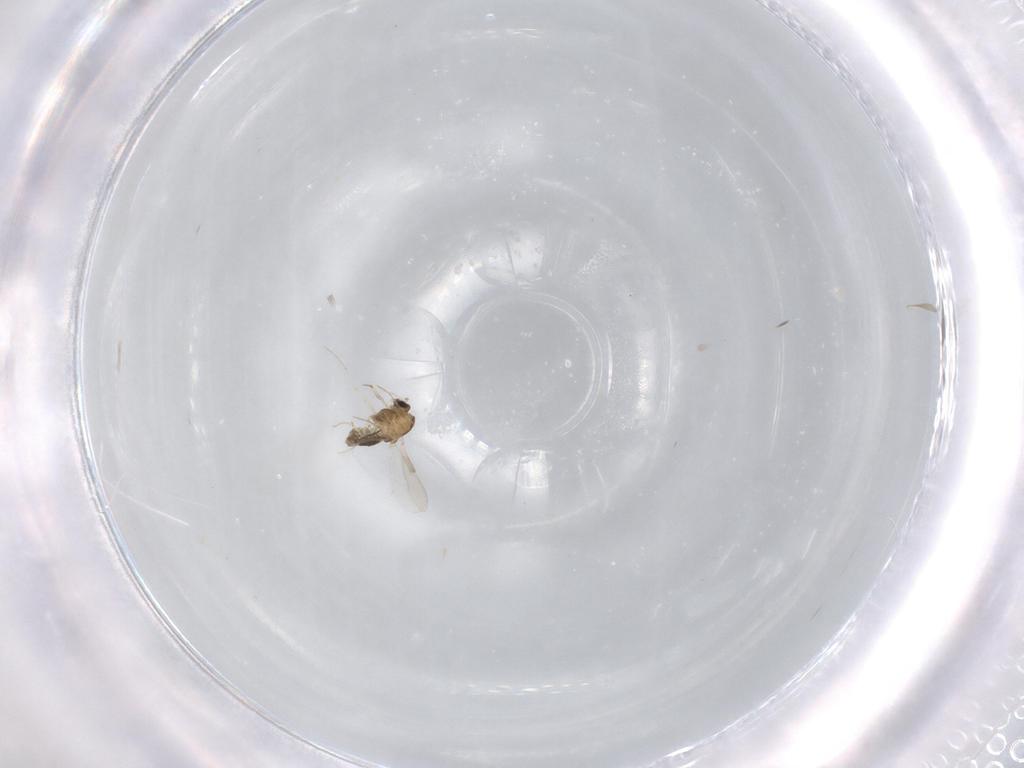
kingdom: Animalia
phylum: Arthropoda
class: Insecta
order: Diptera
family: Chironomidae
